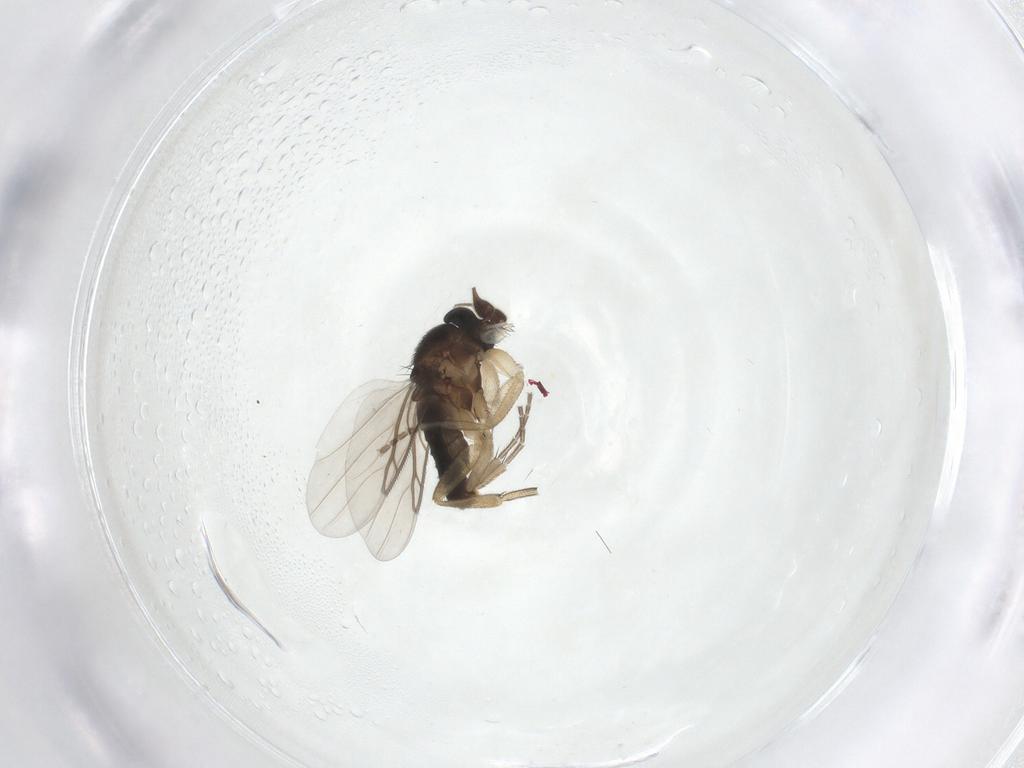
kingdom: Animalia
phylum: Arthropoda
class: Insecta
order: Diptera
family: Phoridae
